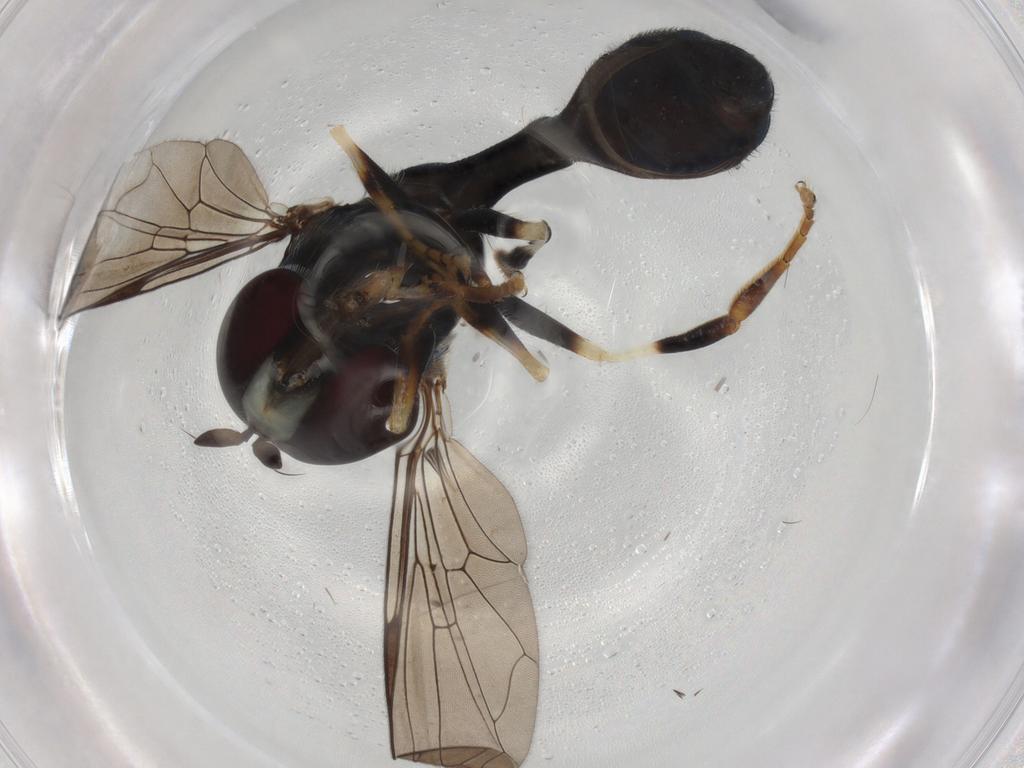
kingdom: Animalia
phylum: Arthropoda
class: Insecta
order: Diptera
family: Syrphidae
